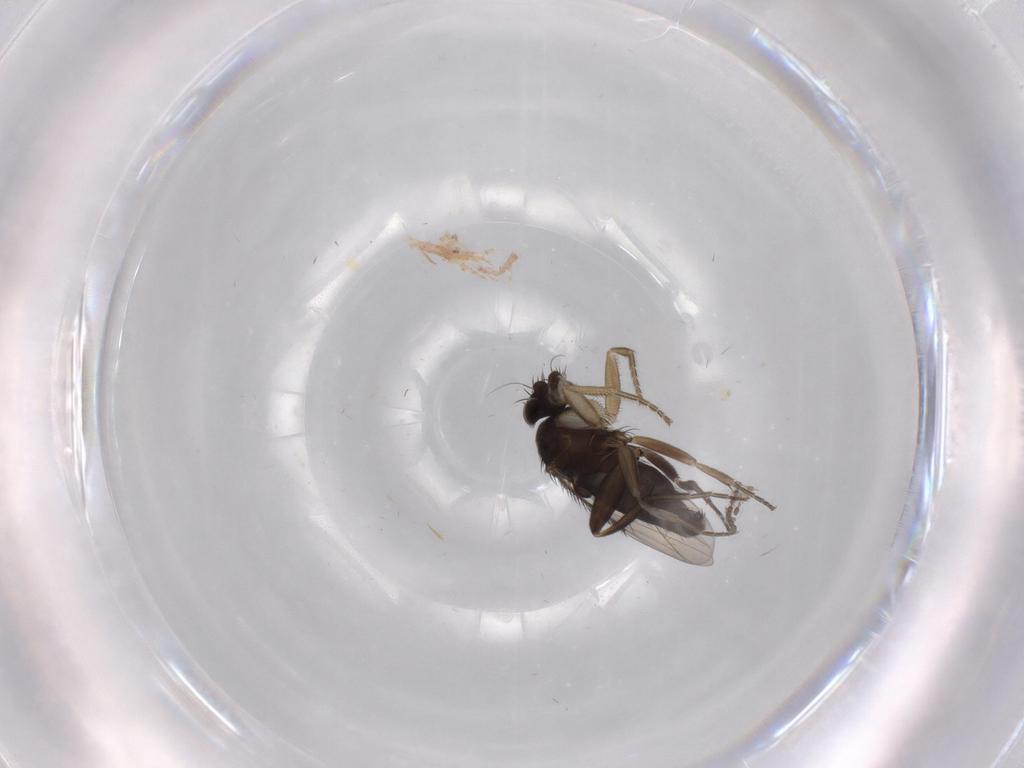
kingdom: Animalia
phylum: Arthropoda
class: Insecta
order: Diptera
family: Cecidomyiidae
